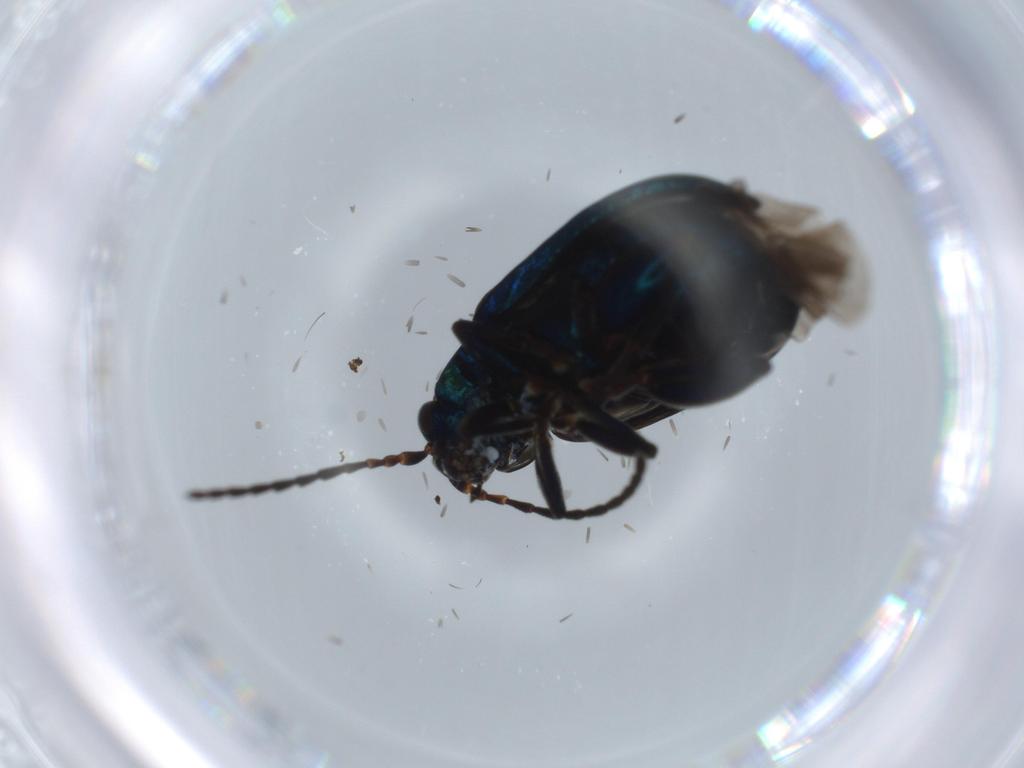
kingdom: Animalia
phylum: Arthropoda
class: Insecta
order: Coleoptera
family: Chrysomelidae
